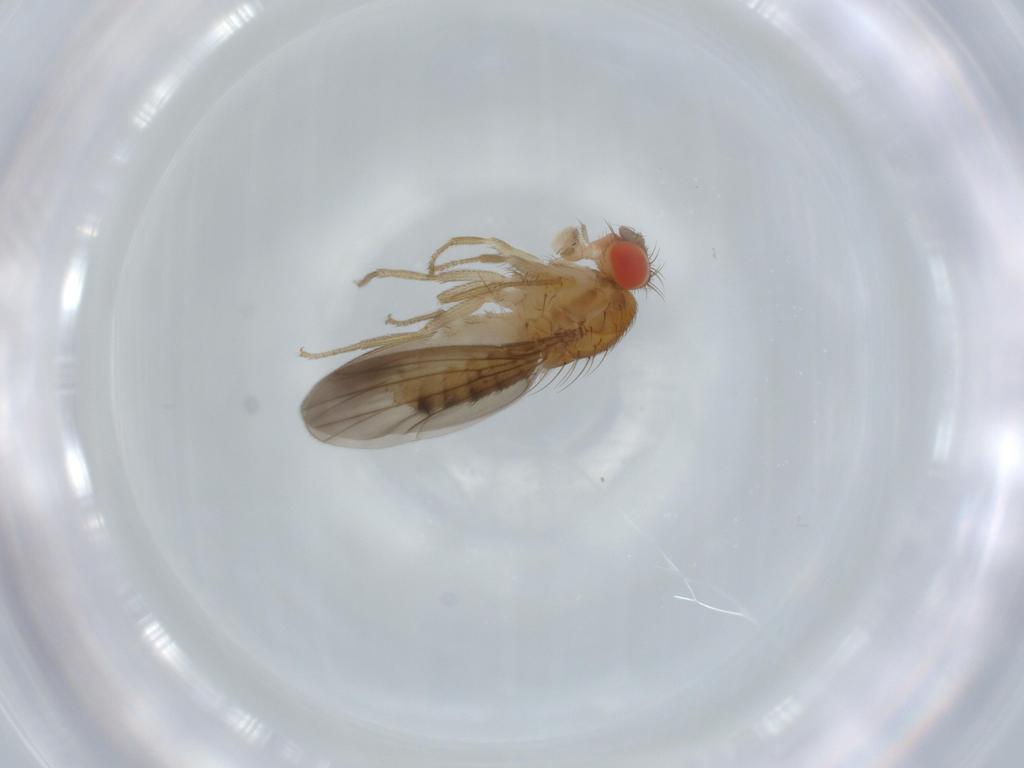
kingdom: Animalia
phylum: Arthropoda
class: Insecta
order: Diptera
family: Drosophilidae
